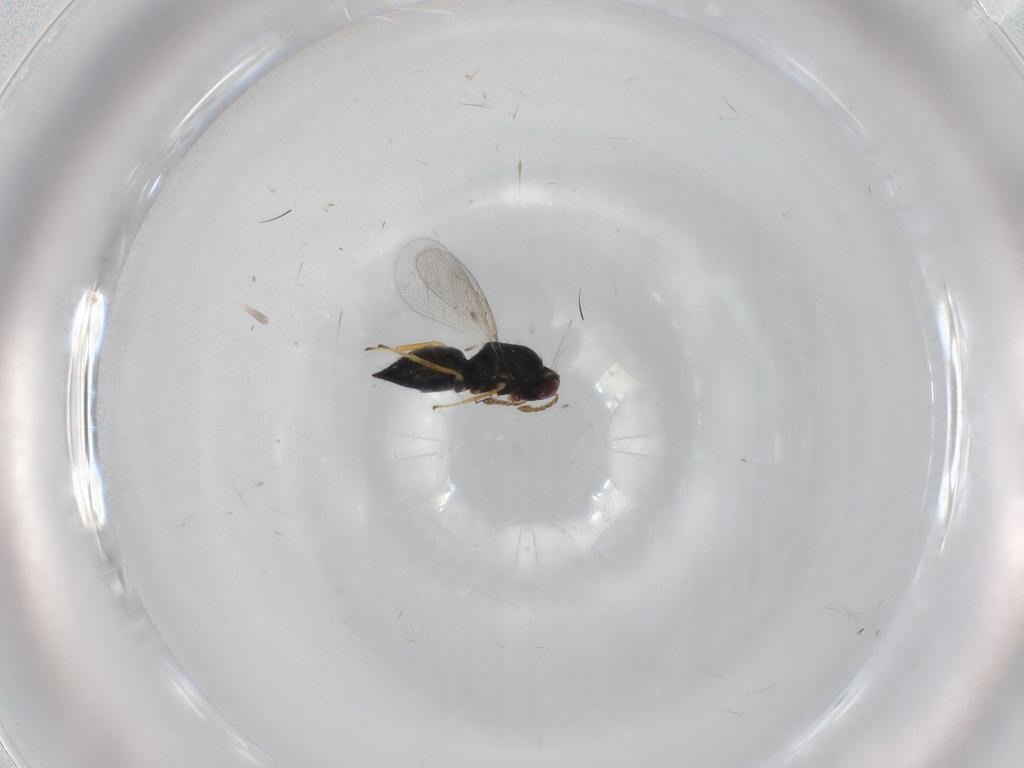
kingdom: Animalia
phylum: Arthropoda
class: Insecta
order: Hymenoptera
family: Eulophidae
